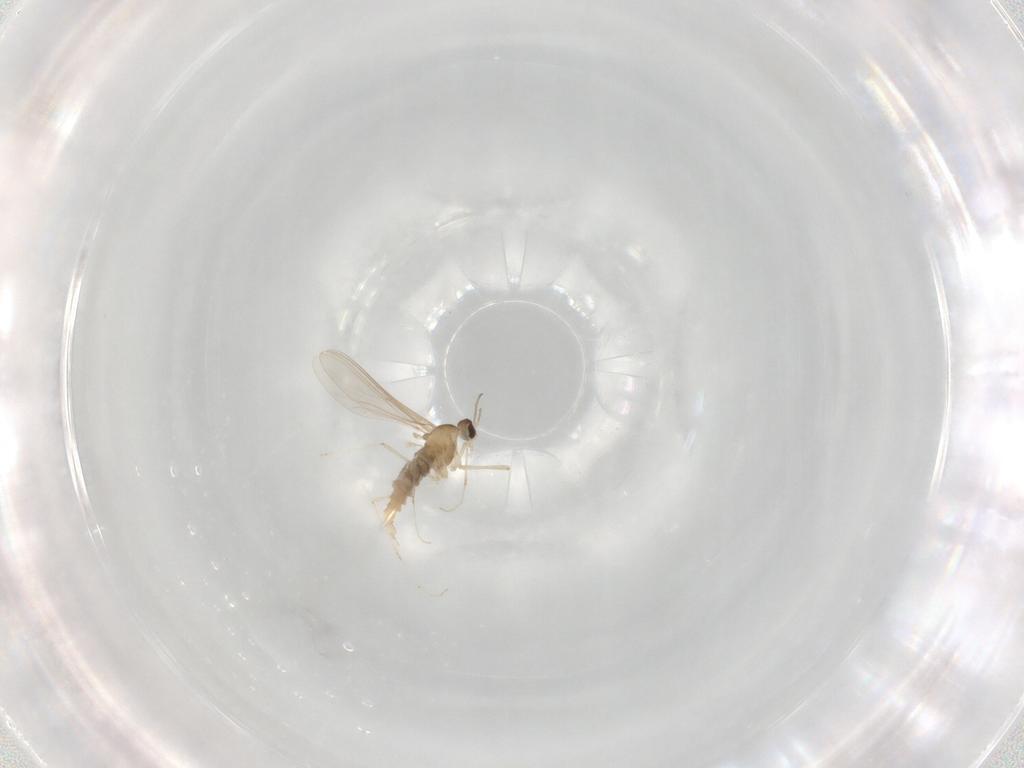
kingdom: Animalia
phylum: Arthropoda
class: Insecta
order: Diptera
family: Cecidomyiidae
